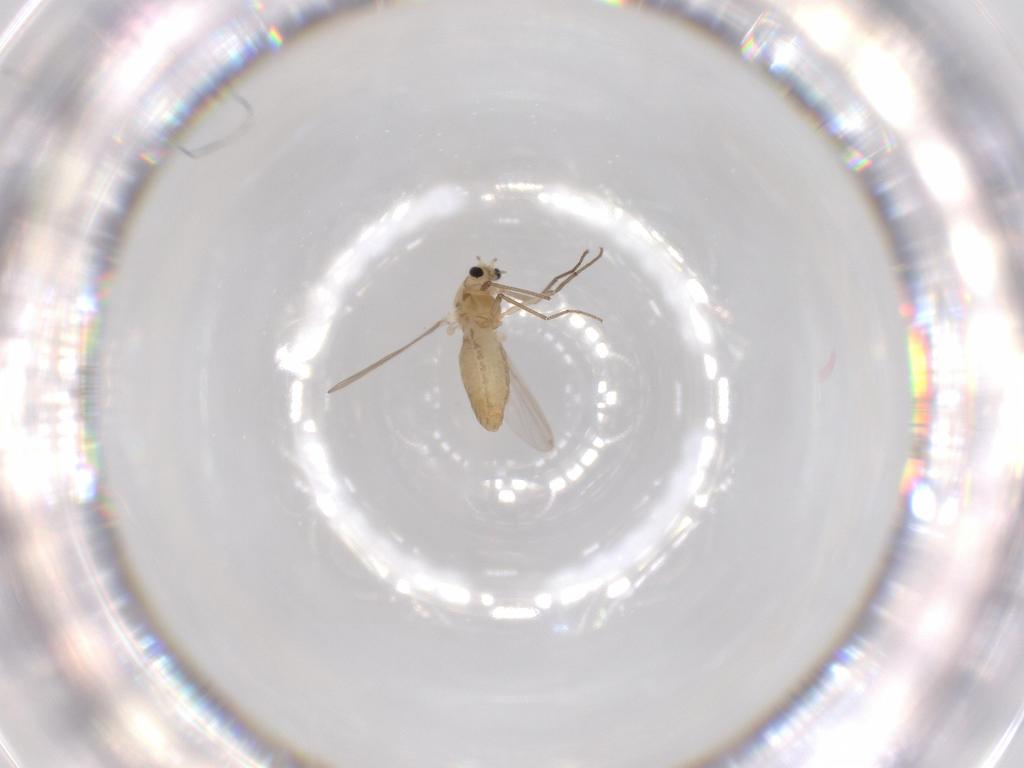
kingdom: Animalia
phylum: Arthropoda
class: Insecta
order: Diptera
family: Chironomidae
